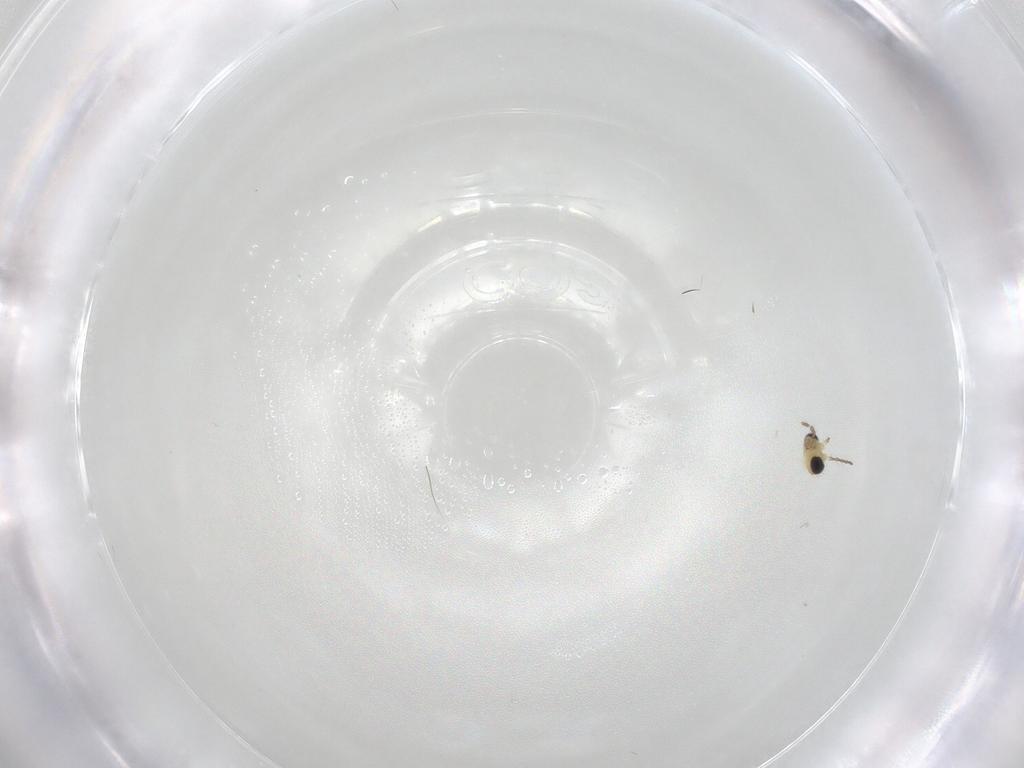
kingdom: Animalia
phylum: Arthropoda
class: Insecta
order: Diptera
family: Chironomidae
